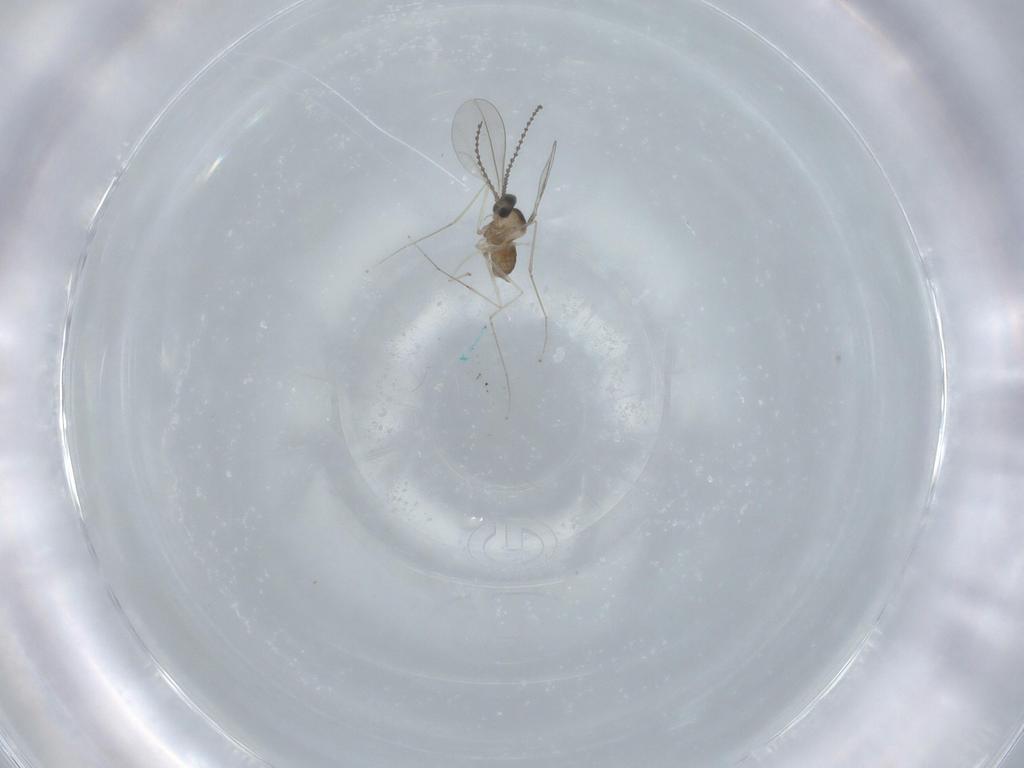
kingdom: Animalia
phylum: Arthropoda
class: Insecta
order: Diptera
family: Cecidomyiidae
